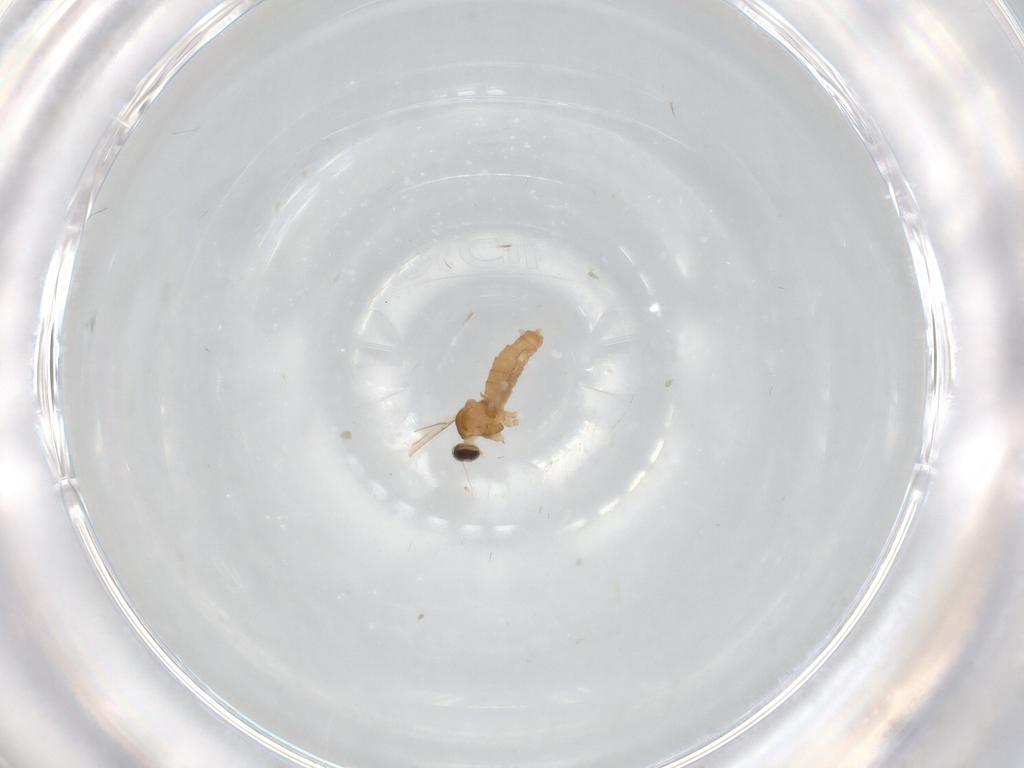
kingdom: Animalia
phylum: Arthropoda
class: Insecta
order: Diptera
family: Cecidomyiidae
